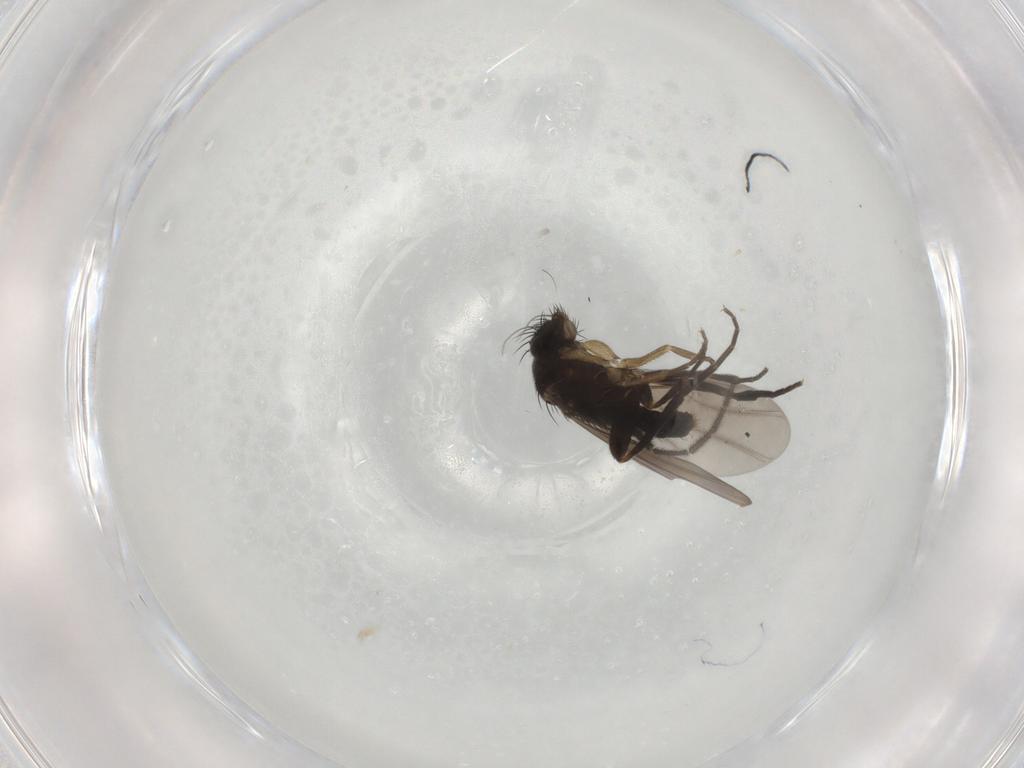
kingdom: Animalia
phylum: Arthropoda
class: Insecta
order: Diptera
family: Phoridae
